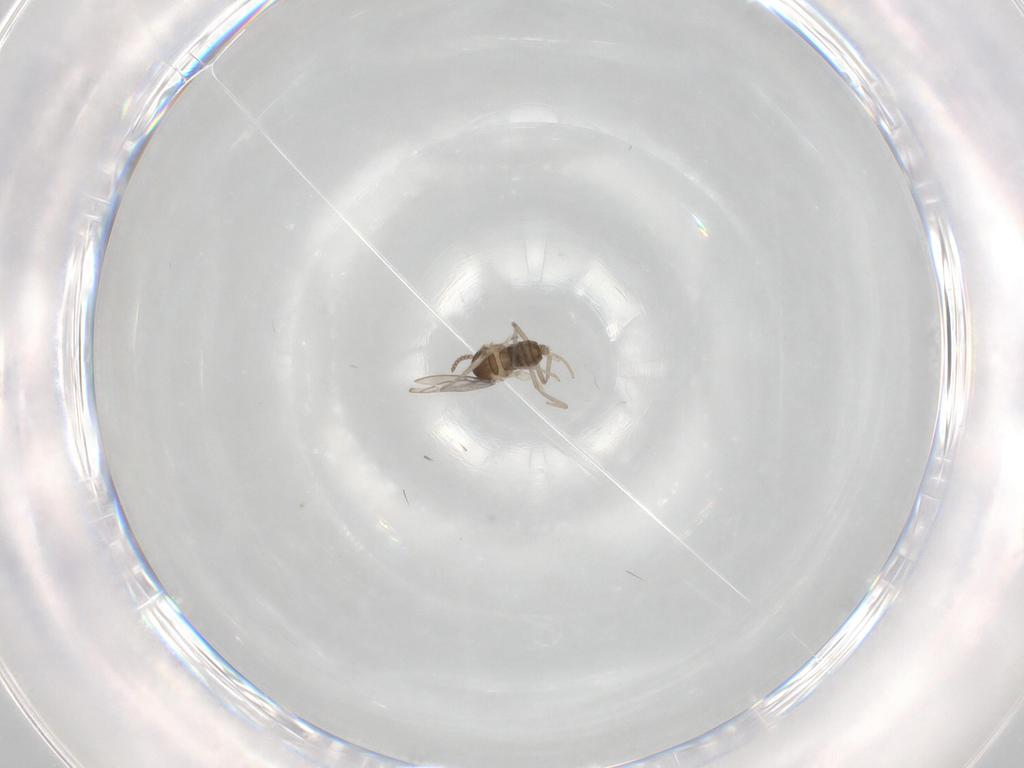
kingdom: Animalia
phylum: Arthropoda
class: Insecta
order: Diptera
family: Cecidomyiidae
